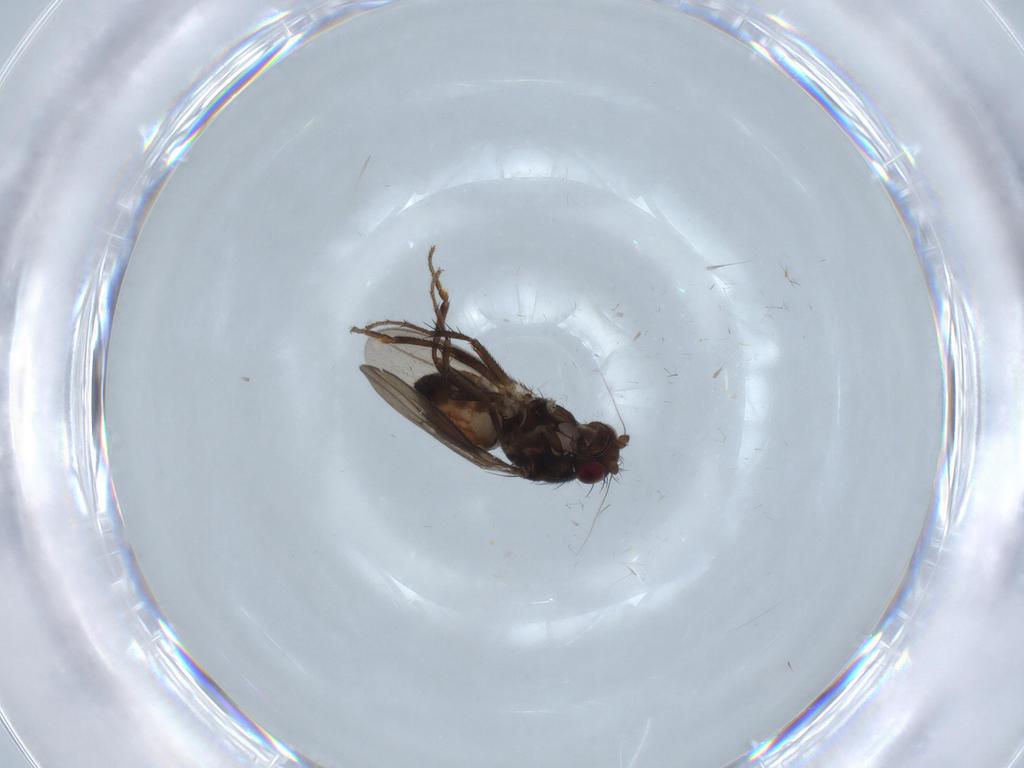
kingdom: Animalia
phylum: Arthropoda
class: Insecta
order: Diptera
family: Sphaeroceridae
